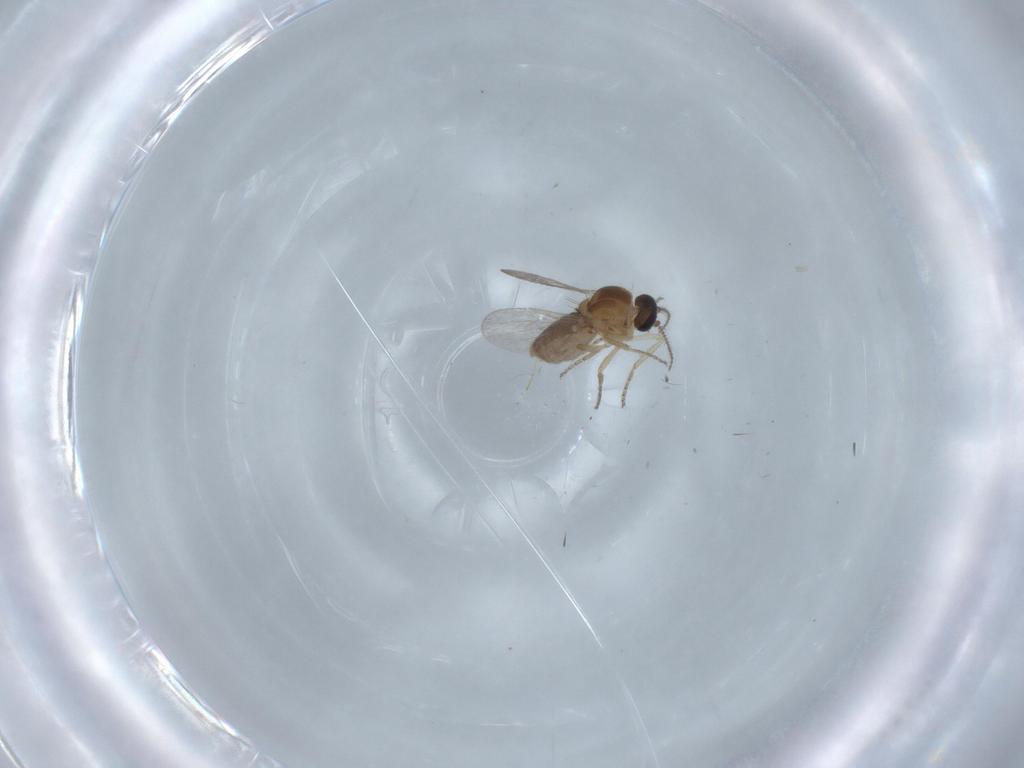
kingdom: Animalia
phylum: Arthropoda
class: Insecta
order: Diptera
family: Ceratopogonidae
